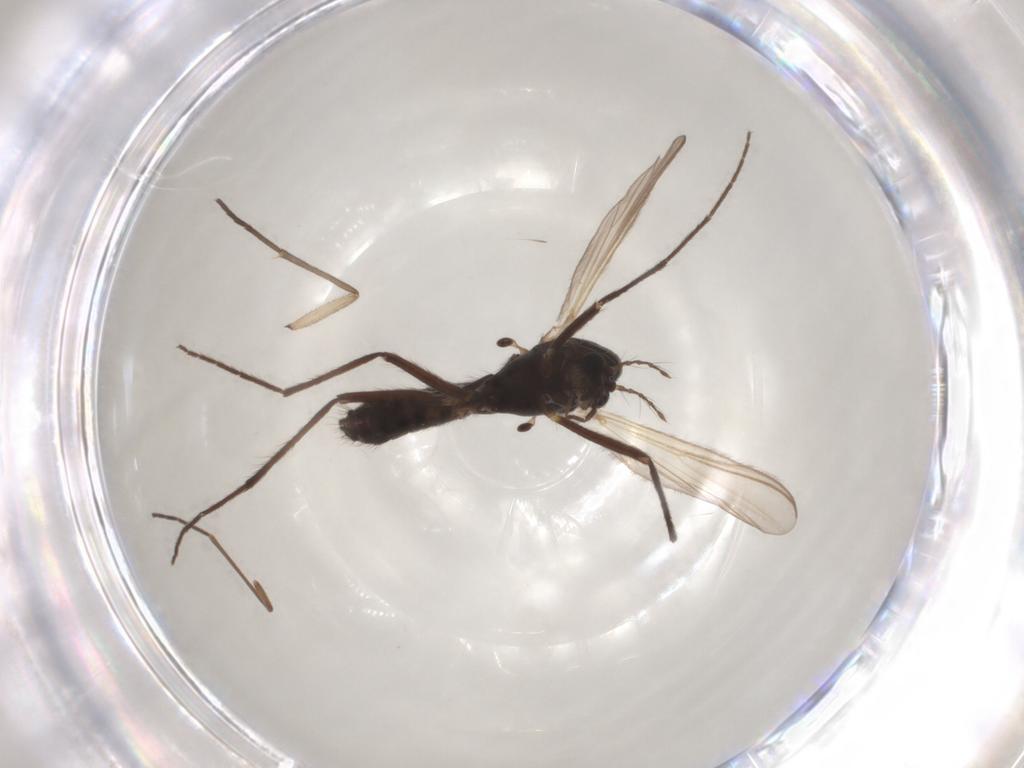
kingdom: Animalia
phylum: Arthropoda
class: Insecta
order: Diptera
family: Chironomidae
